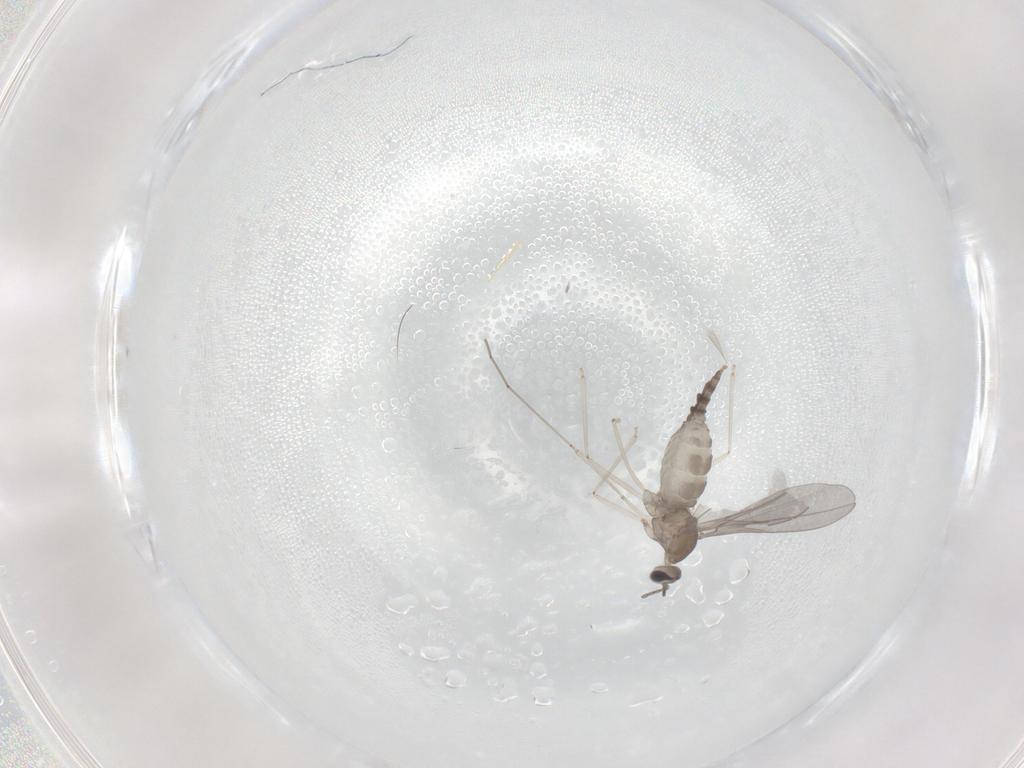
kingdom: Animalia
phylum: Arthropoda
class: Insecta
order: Diptera
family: Cecidomyiidae
